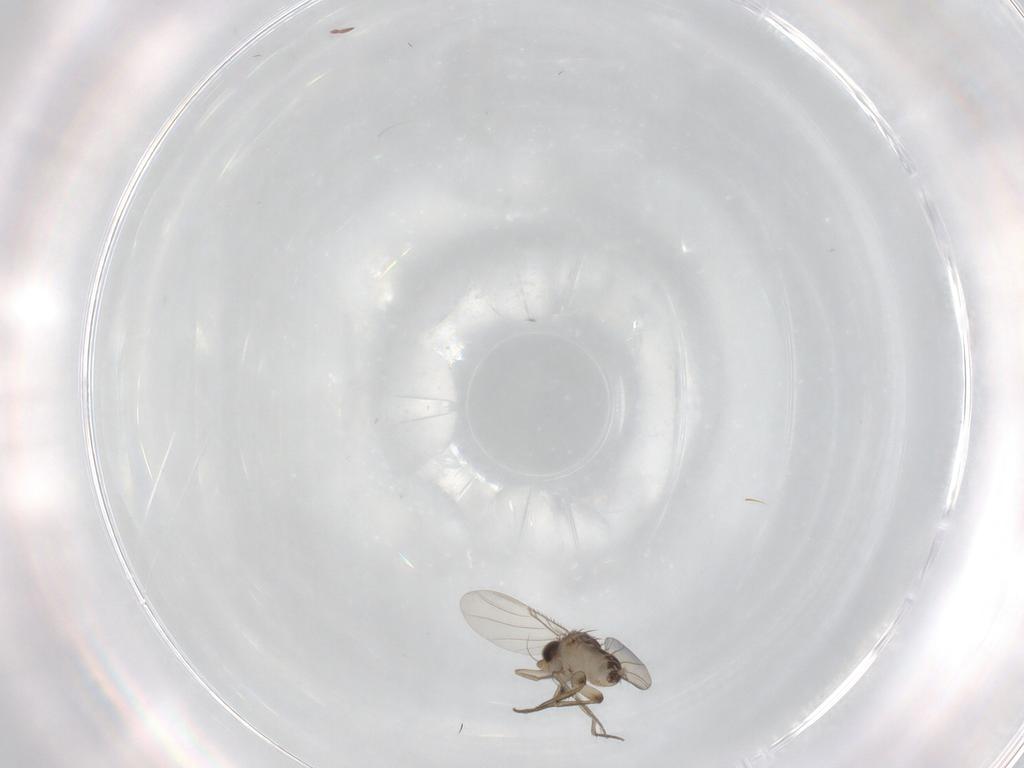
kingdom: Animalia
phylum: Arthropoda
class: Insecta
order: Diptera
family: Phoridae
